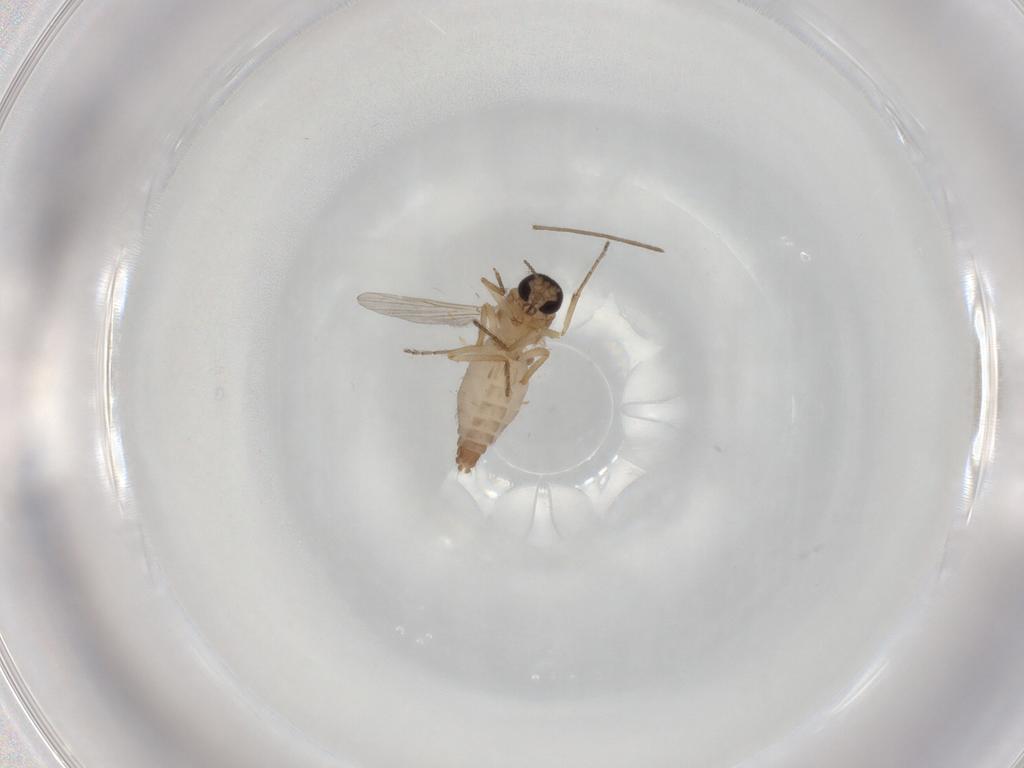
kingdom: Animalia
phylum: Arthropoda
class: Insecta
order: Diptera
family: Ceratopogonidae
